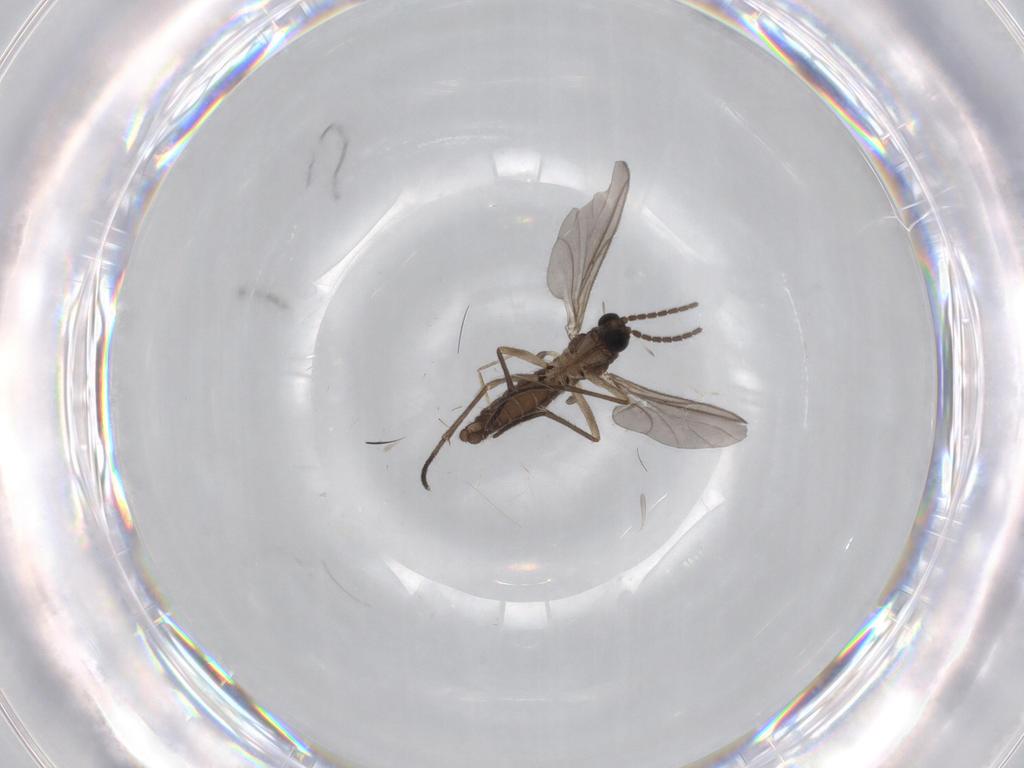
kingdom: Animalia
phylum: Arthropoda
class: Insecta
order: Diptera
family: Sciaridae
